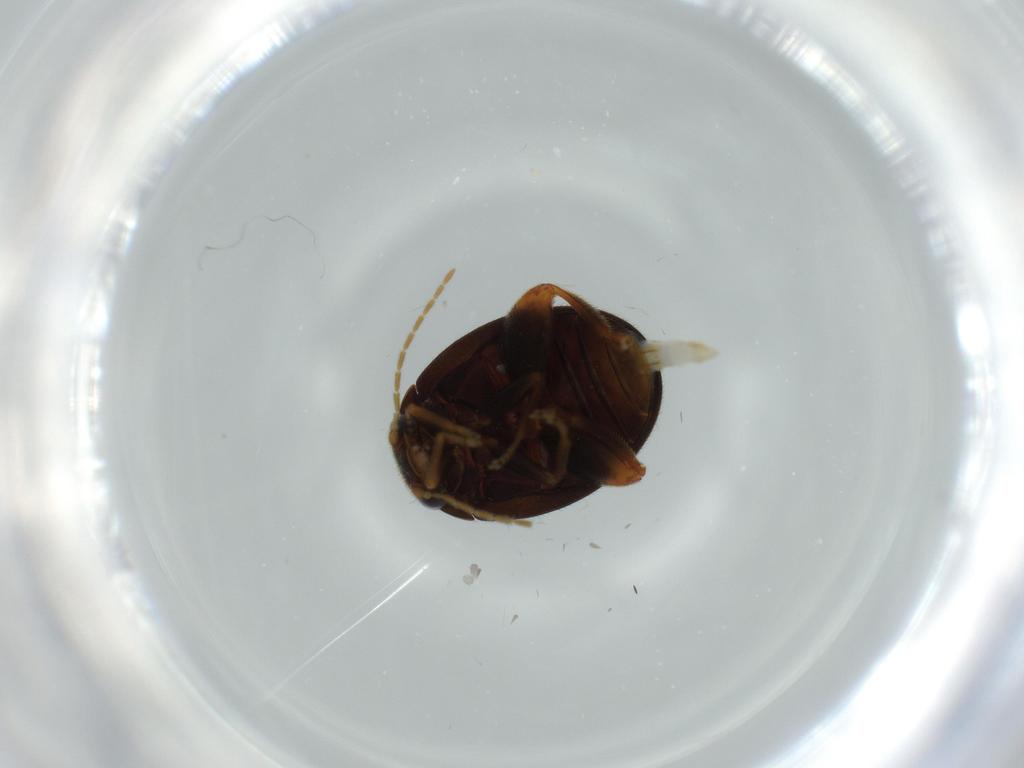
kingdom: Animalia
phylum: Arthropoda
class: Insecta
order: Coleoptera
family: Scirtidae
